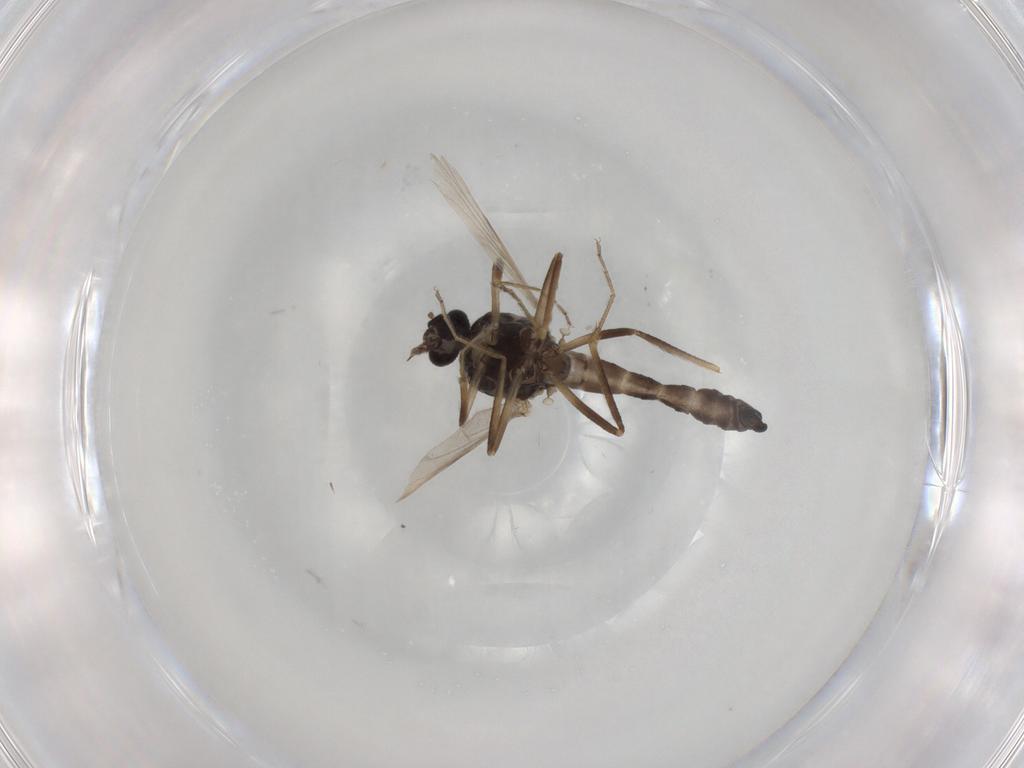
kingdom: Animalia
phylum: Arthropoda
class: Insecta
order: Diptera
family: Ceratopogonidae
